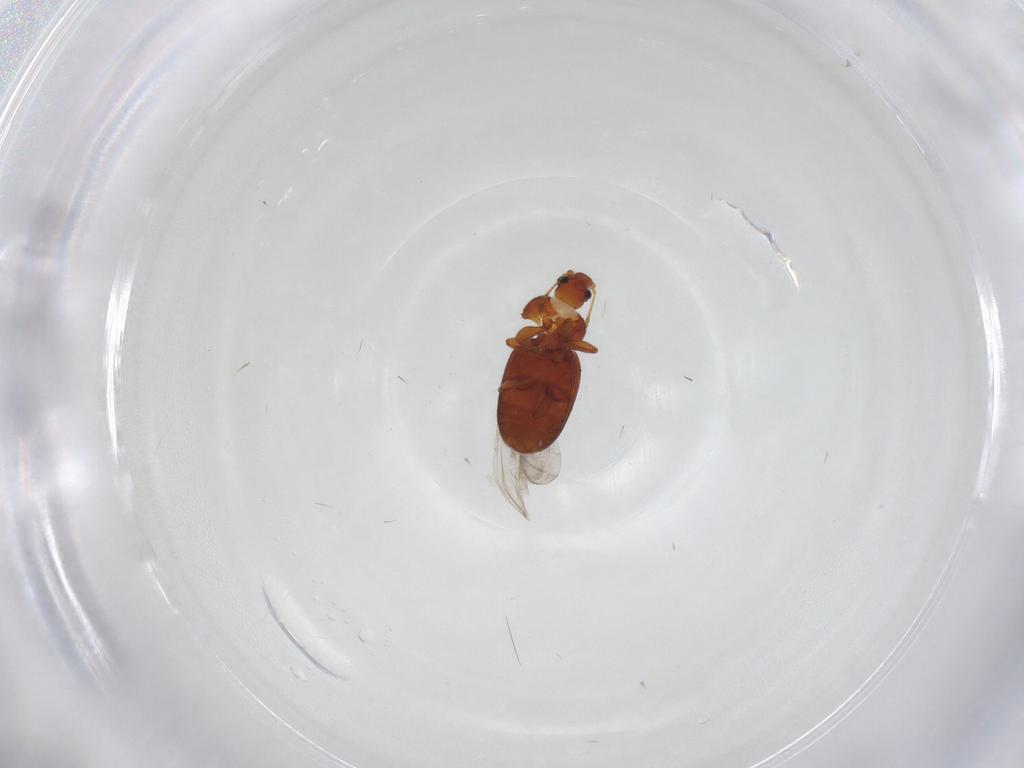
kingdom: Animalia
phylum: Arthropoda
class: Insecta
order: Coleoptera
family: Latridiidae
